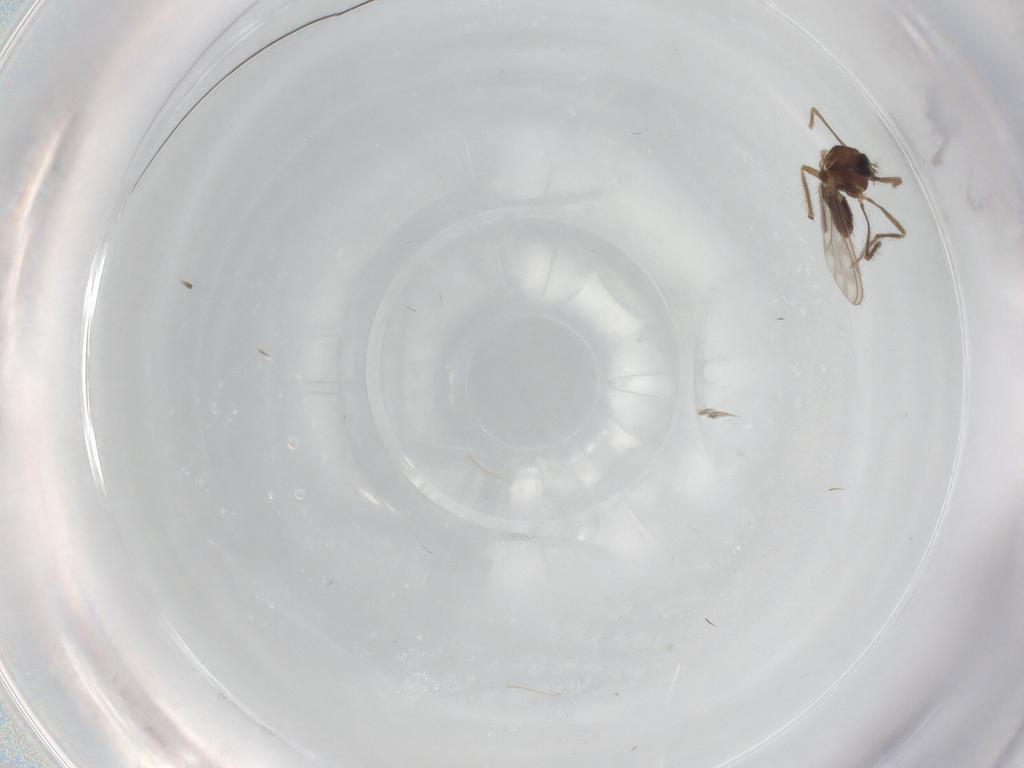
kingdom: Animalia
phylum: Arthropoda
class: Insecta
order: Diptera
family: Chironomidae
